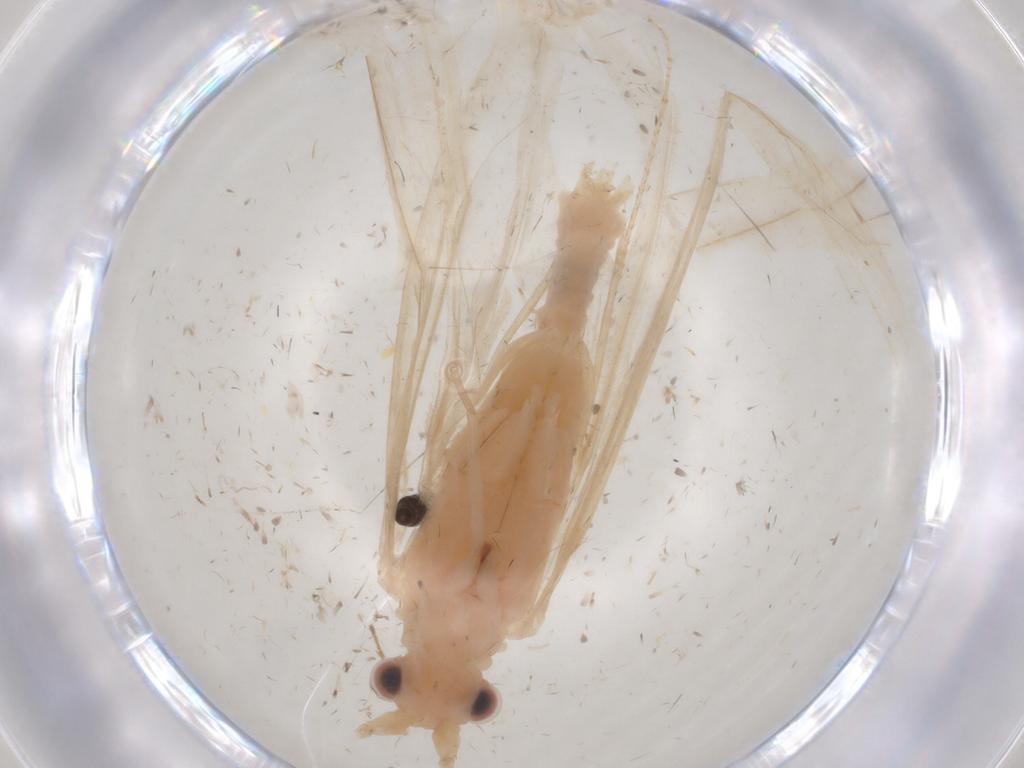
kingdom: Animalia
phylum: Arthropoda
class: Insecta
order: Trichoptera
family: Leptoceridae
